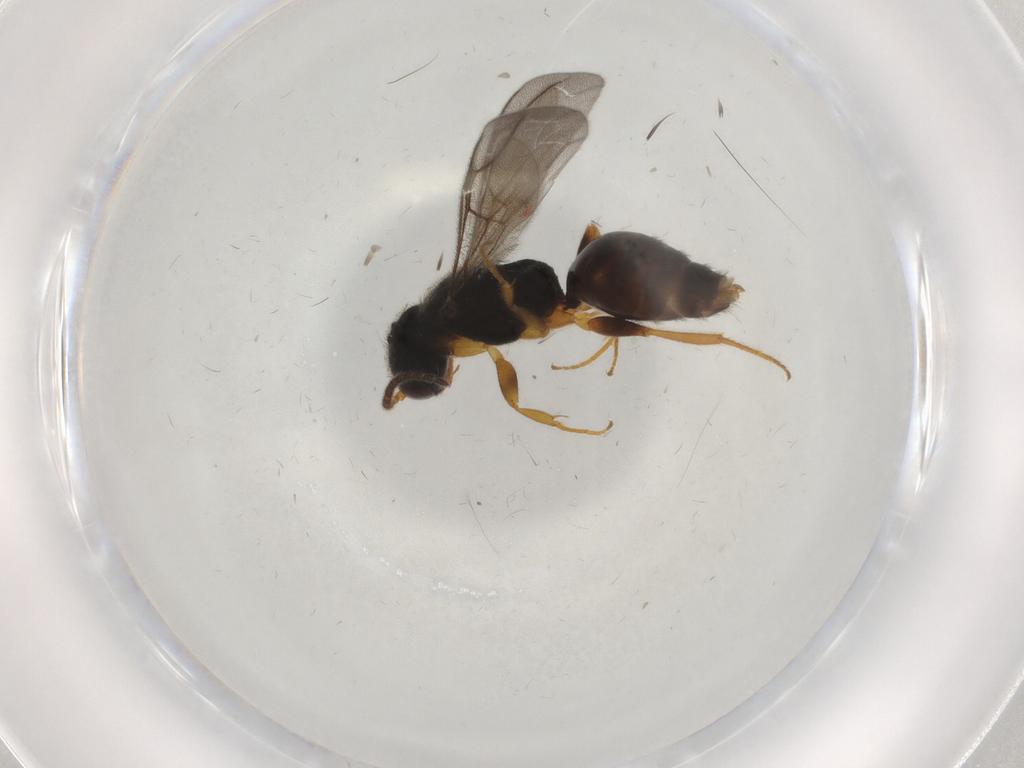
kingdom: Animalia
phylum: Arthropoda
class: Insecta
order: Hymenoptera
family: Bethylidae
